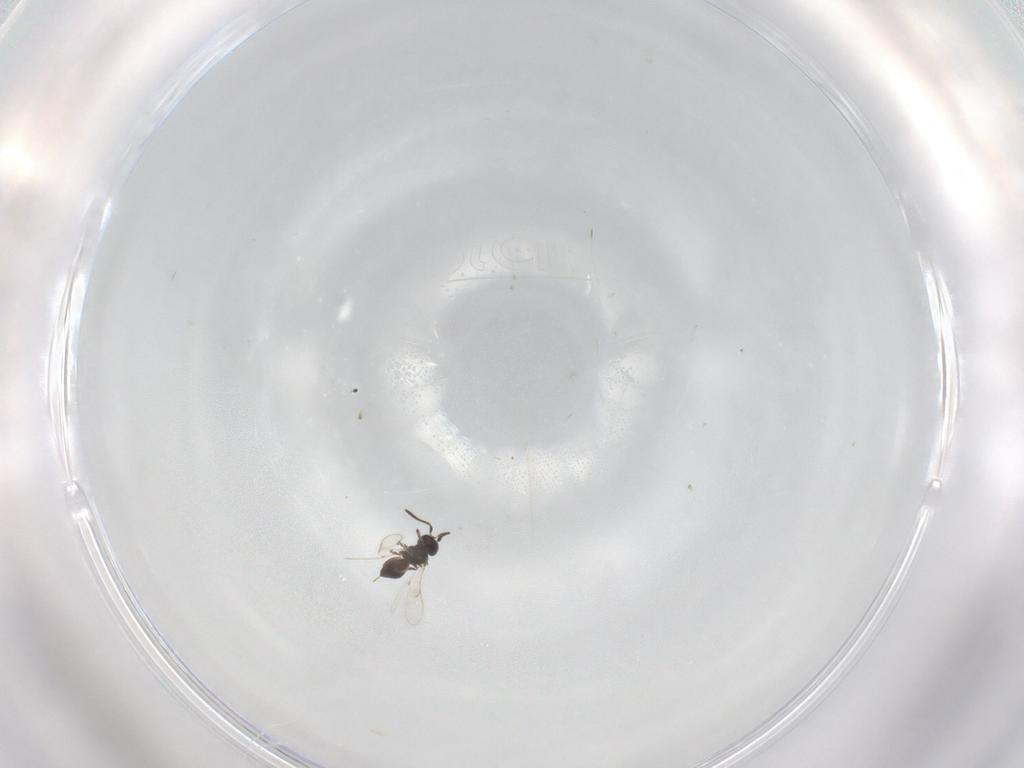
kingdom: Animalia
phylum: Arthropoda
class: Insecta
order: Hymenoptera
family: Scelionidae
